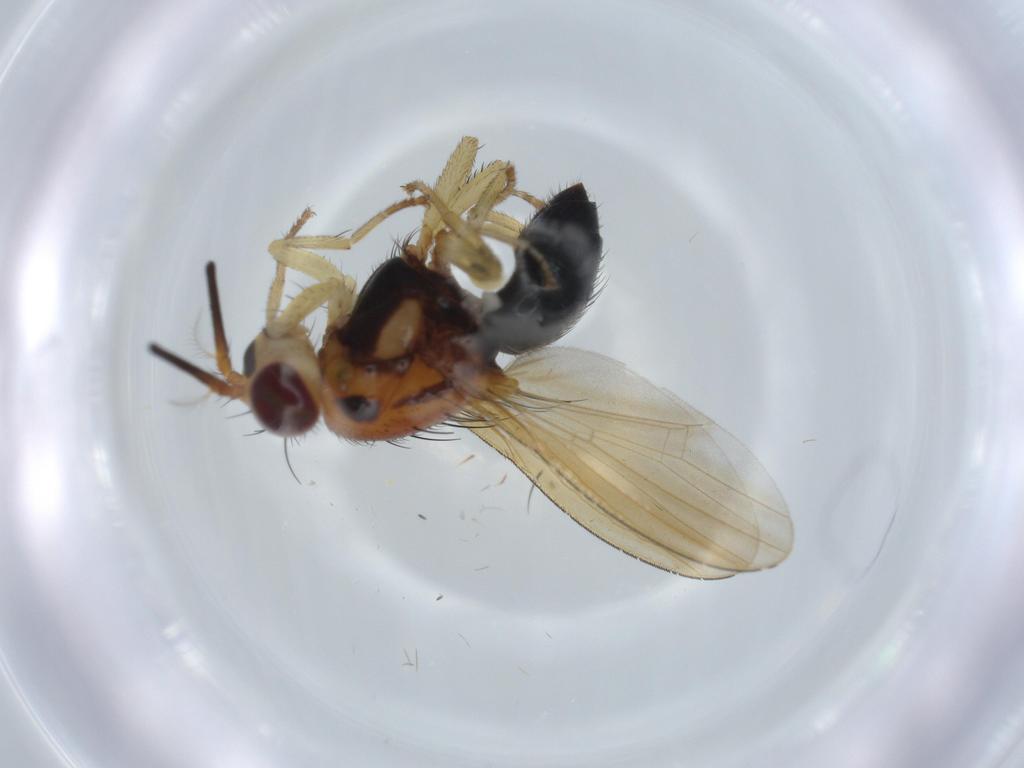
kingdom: Animalia
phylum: Arthropoda
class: Insecta
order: Diptera
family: Lauxaniidae
